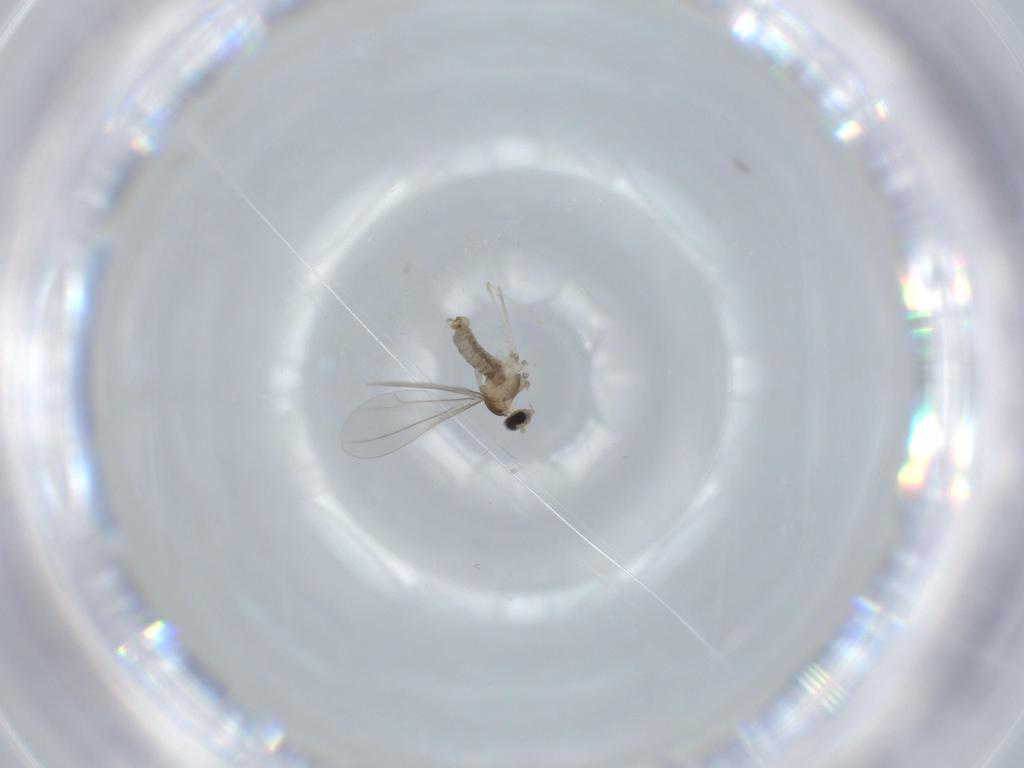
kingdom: Animalia
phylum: Arthropoda
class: Insecta
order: Diptera
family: Cecidomyiidae
